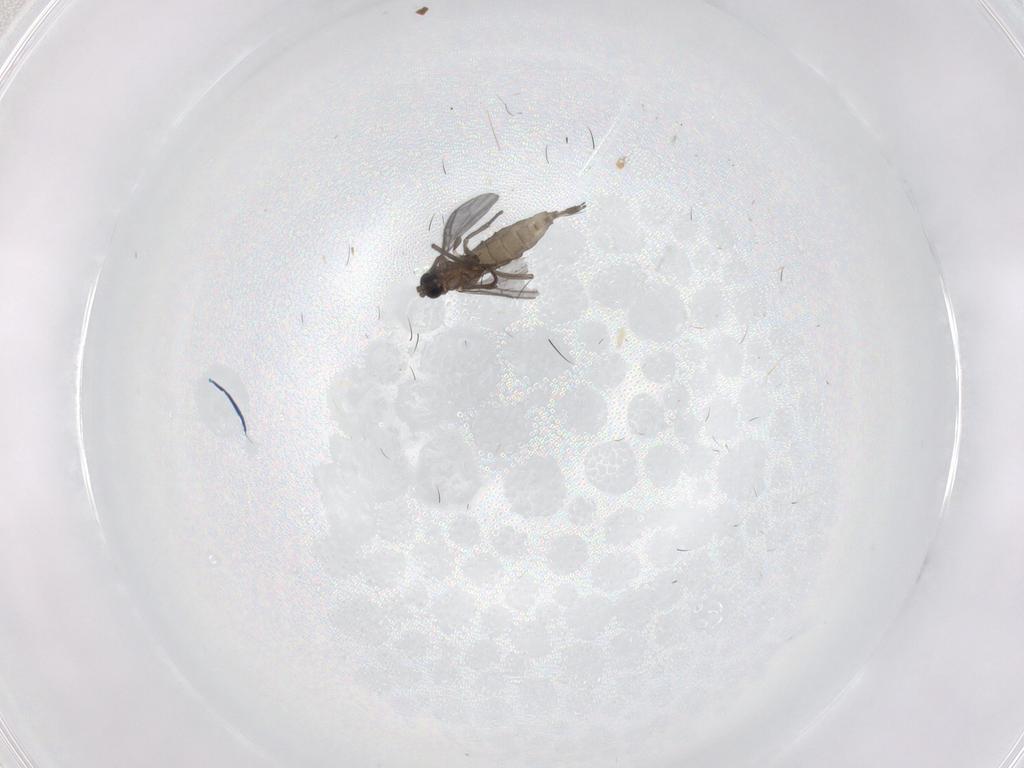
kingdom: Animalia
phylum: Arthropoda
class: Insecta
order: Diptera
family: Sciaridae
